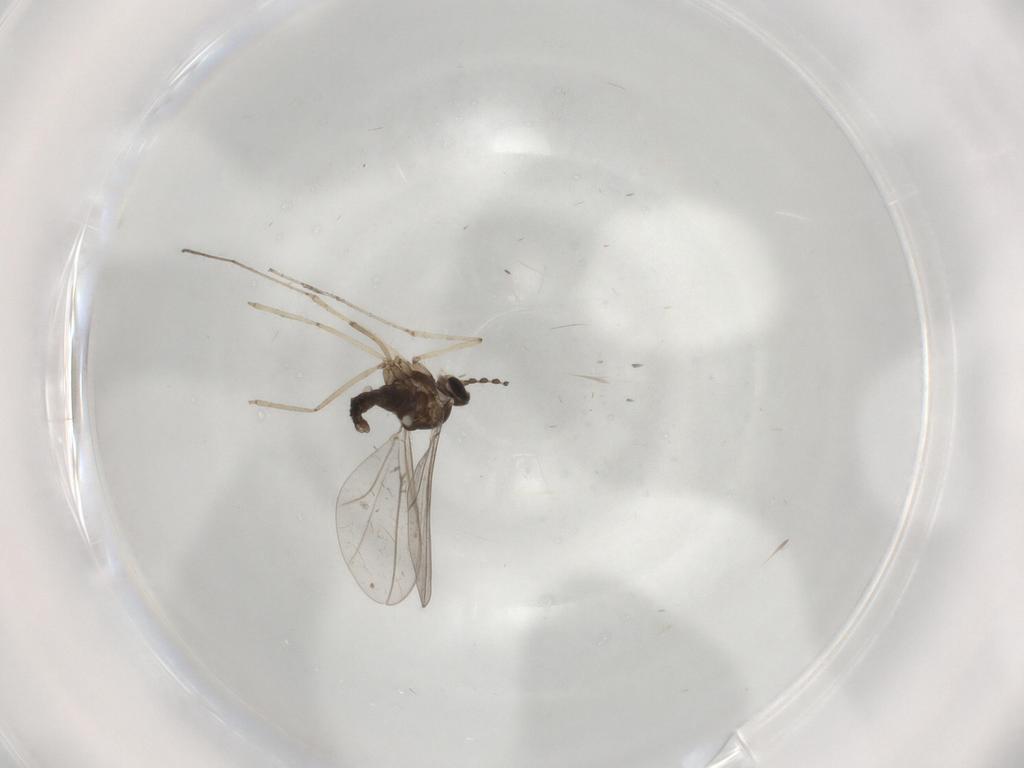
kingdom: Animalia
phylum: Arthropoda
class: Insecta
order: Diptera
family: Cecidomyiidae
